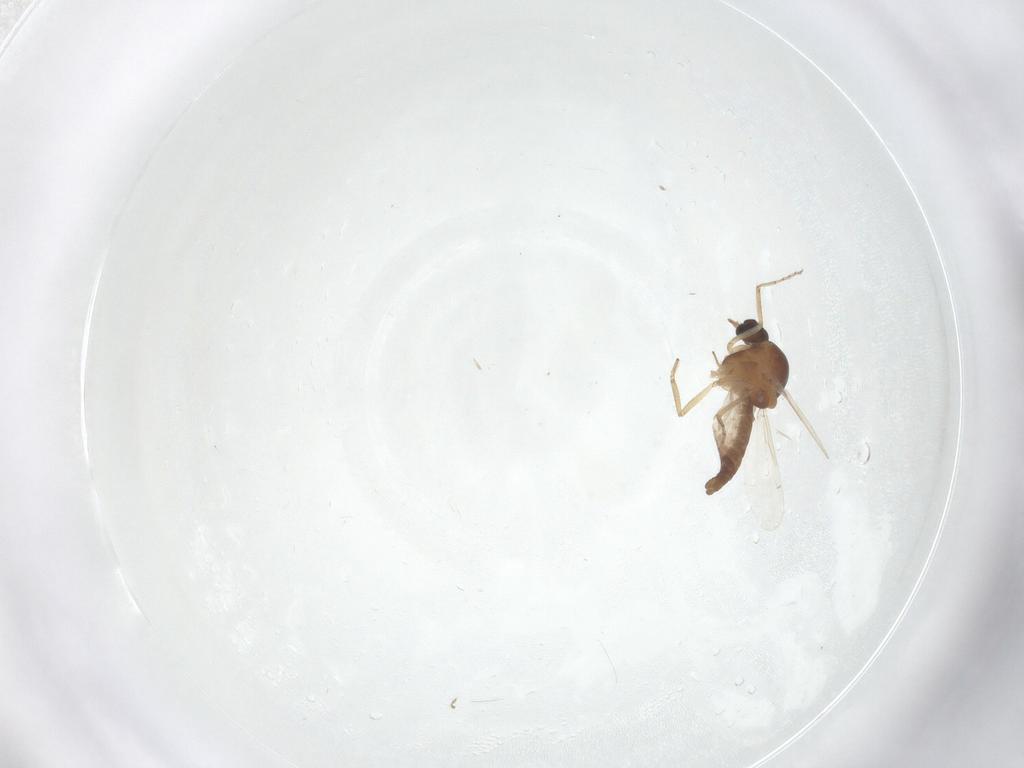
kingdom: Animalia
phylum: Arthropoda
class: Insecta
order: Diptera
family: Ceratopogonidae
